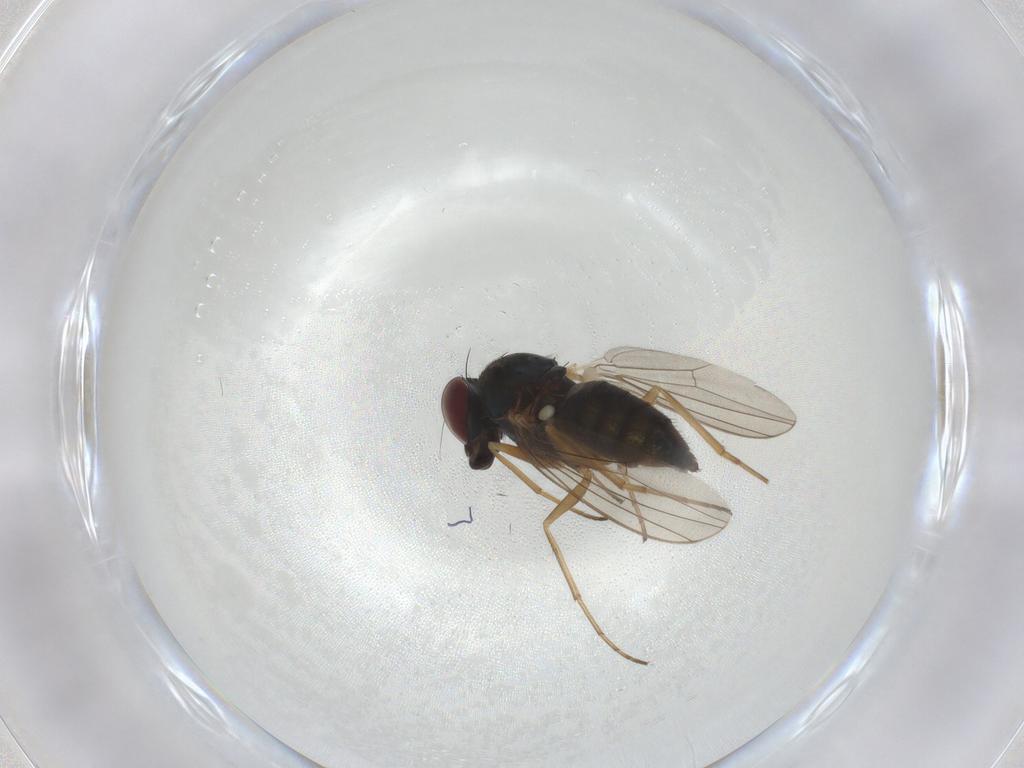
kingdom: Animalia
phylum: Arthropoda
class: Insecta
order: Diptera
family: Dolichopodidae
